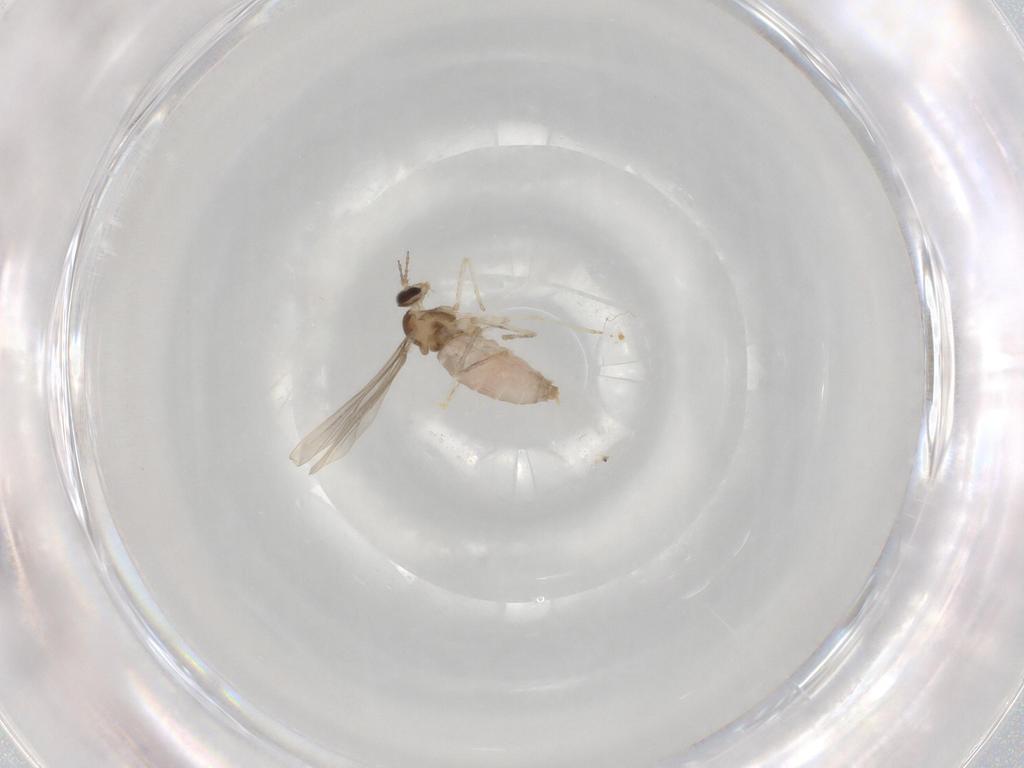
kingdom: Animalia
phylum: Arthropoda
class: Insecta
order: Diptera
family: Cecidomyiidae
